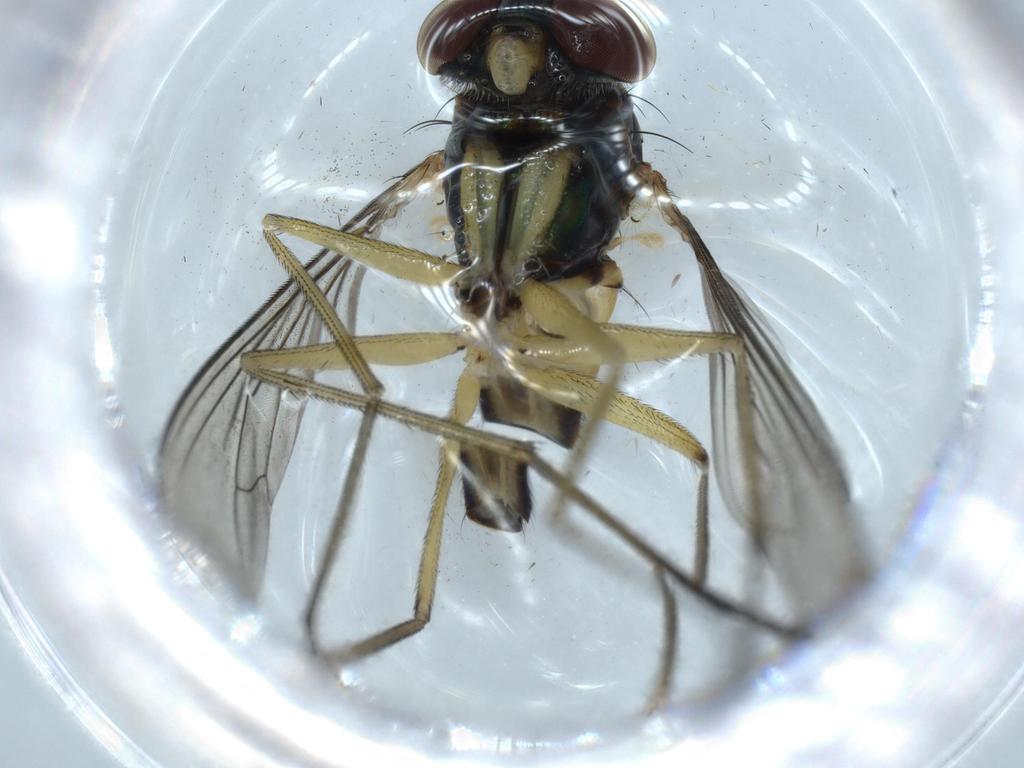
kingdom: Animalia
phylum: Arthropoda
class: Insecta
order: Diptera
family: Dolichopodidae
